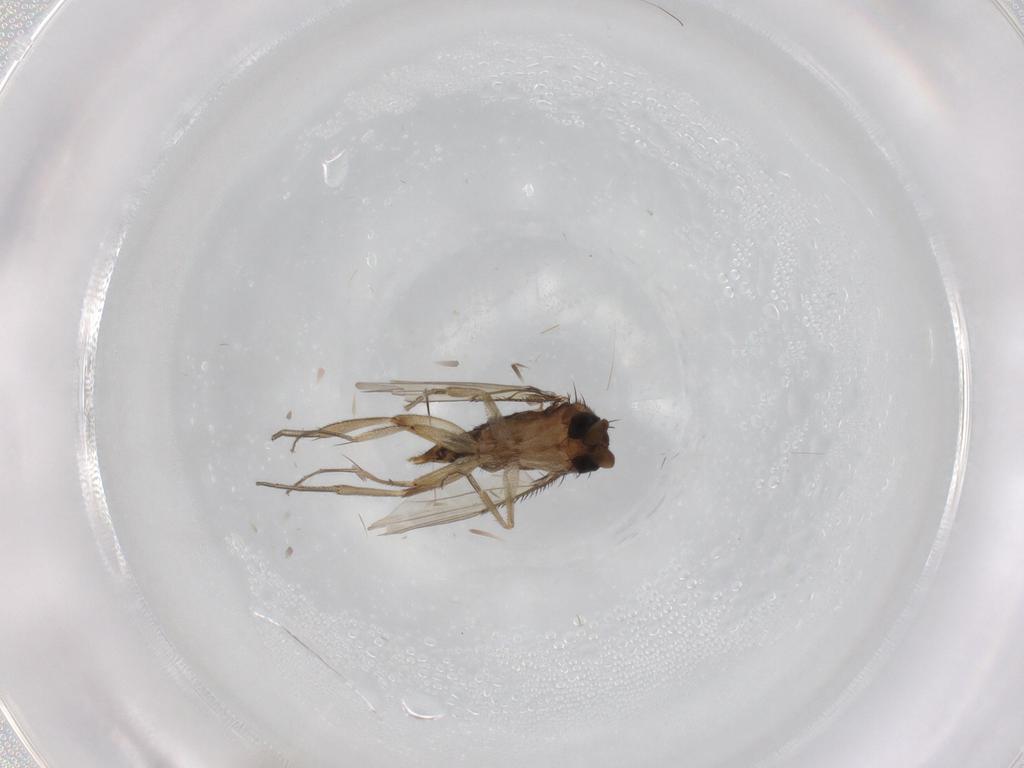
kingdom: Animalia
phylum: Arthropoda
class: Insecta
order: Diptera
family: Phoridae
